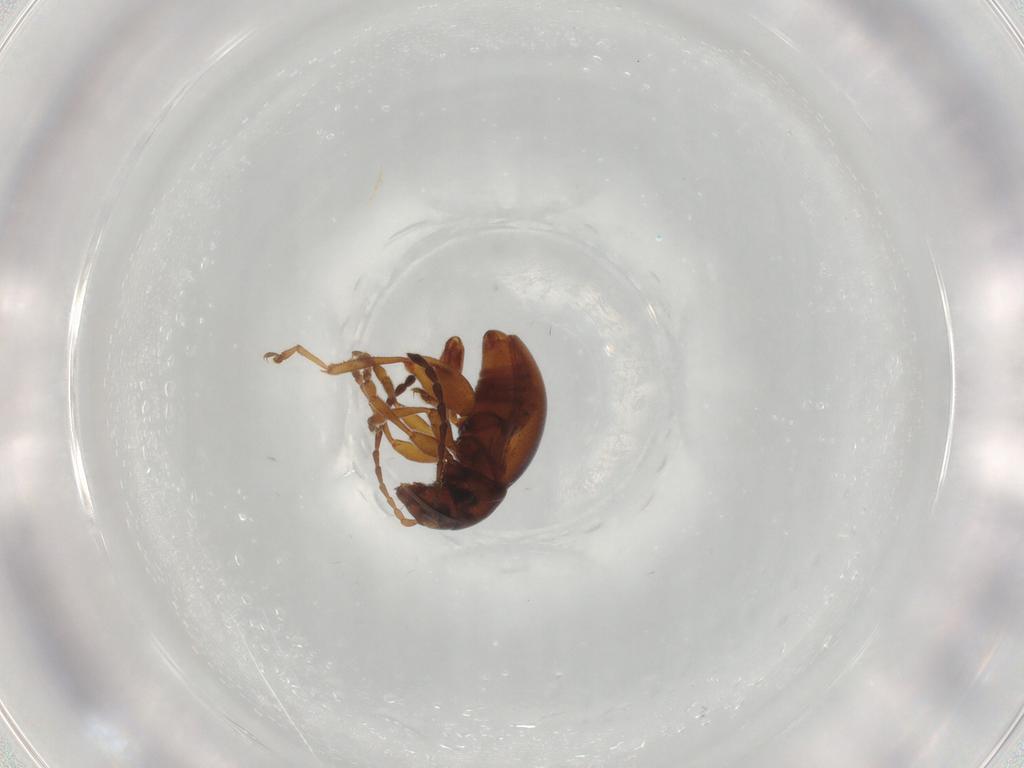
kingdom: Animalia
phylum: Arthropoda
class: Insecta
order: Coleoptera
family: Chrysomelidae
